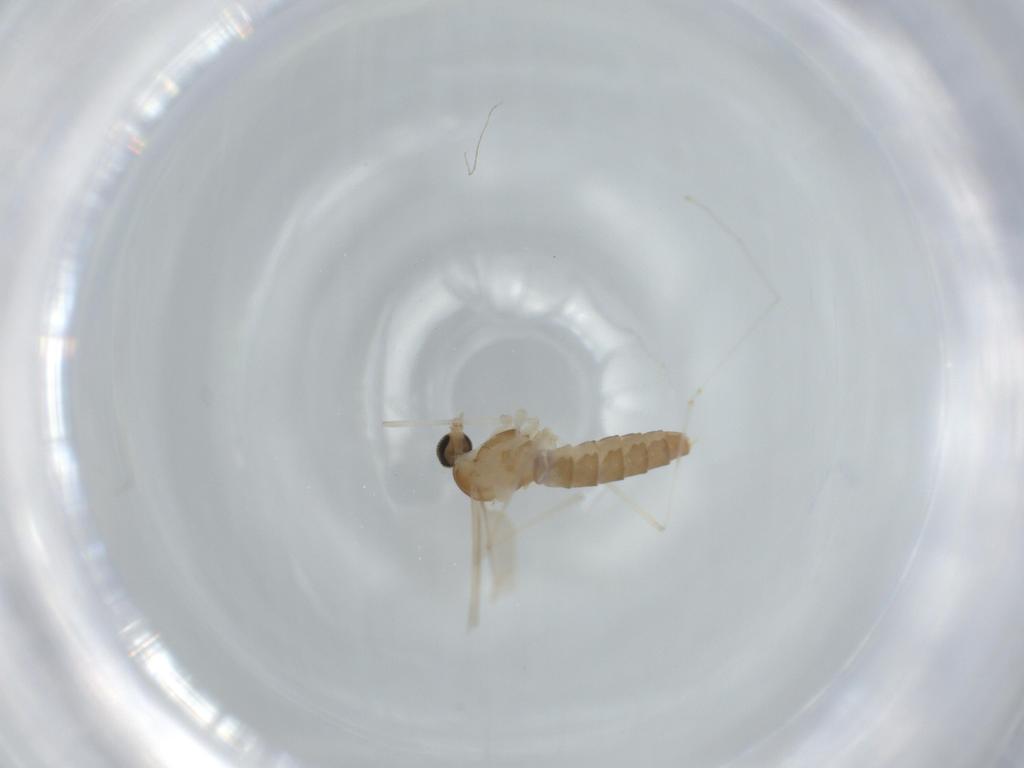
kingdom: Animalia
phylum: Arthropoda
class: Insecta
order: Diptera
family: Cecidomyiidae
